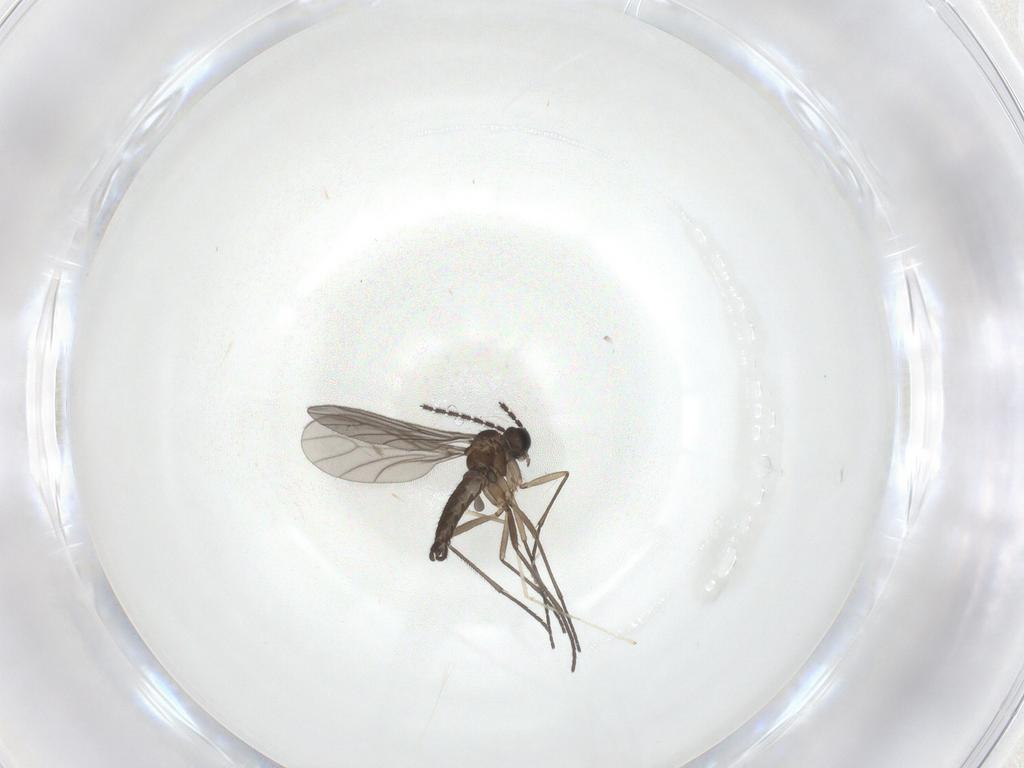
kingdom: Animalia
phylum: Arthropoda
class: Insecta
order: Diptera
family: Sciaridae
